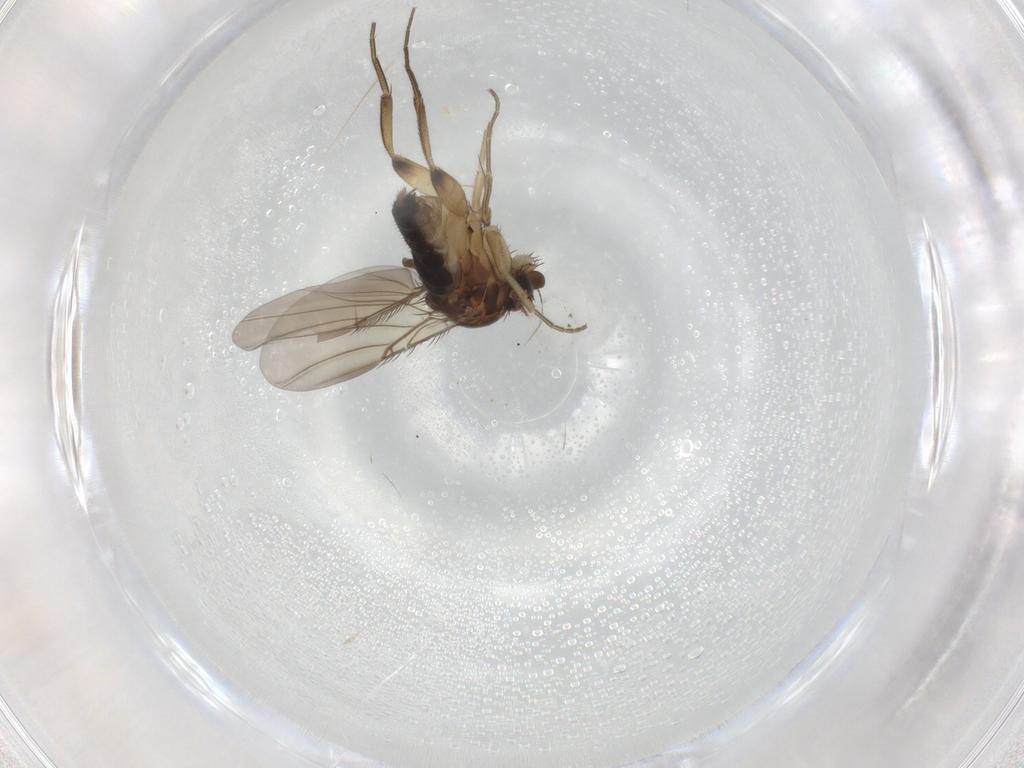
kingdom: Animalia
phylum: Arthropoda
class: Insecta
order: Diptera
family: Phoridae
